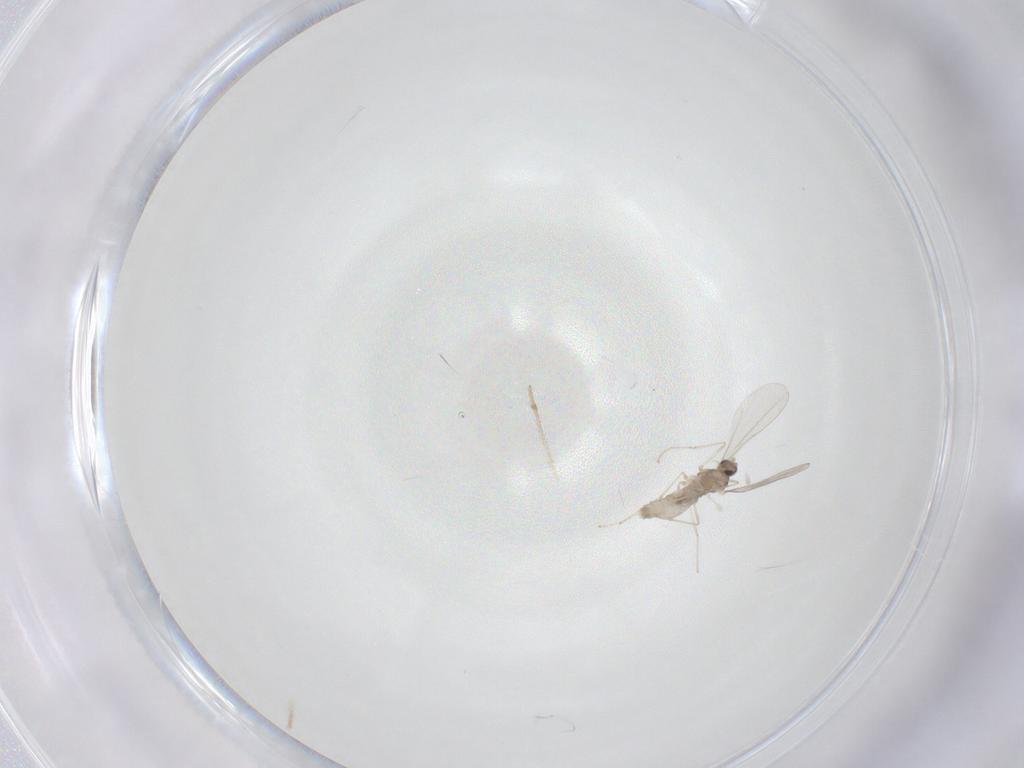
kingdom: Animalia
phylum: Arthropoda
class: Insecta
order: Diptera
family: Cecidomyiidae
